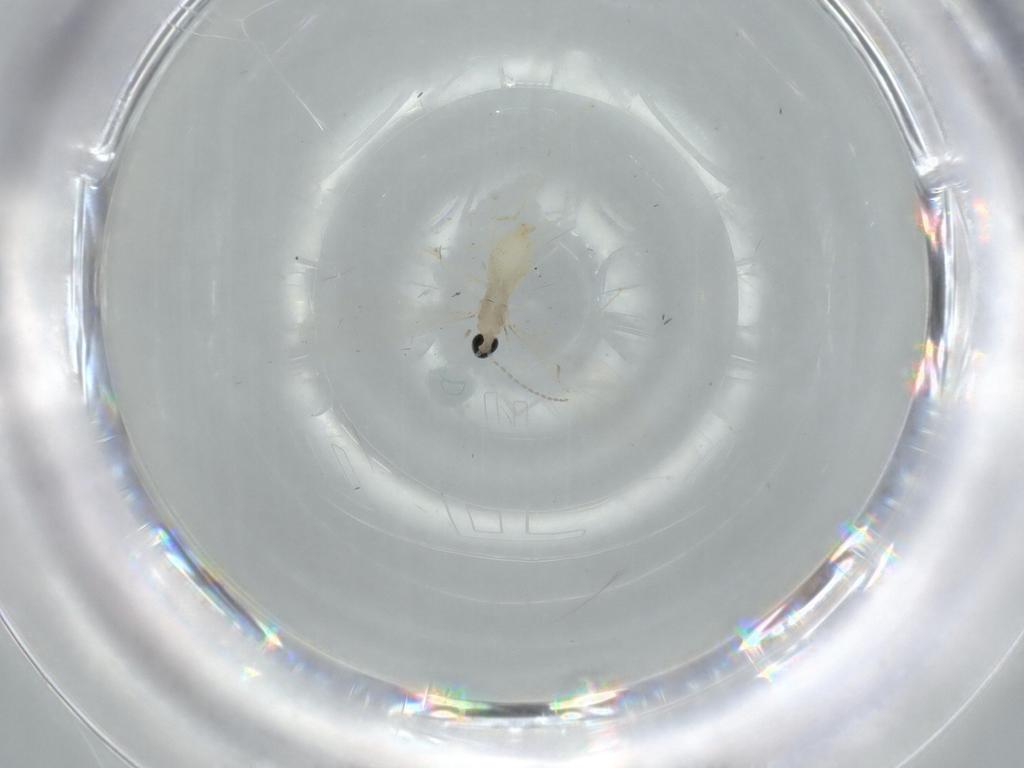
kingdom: Animalia
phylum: Arthropoda
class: Insecta
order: Diptera
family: Cecidomyiidae
